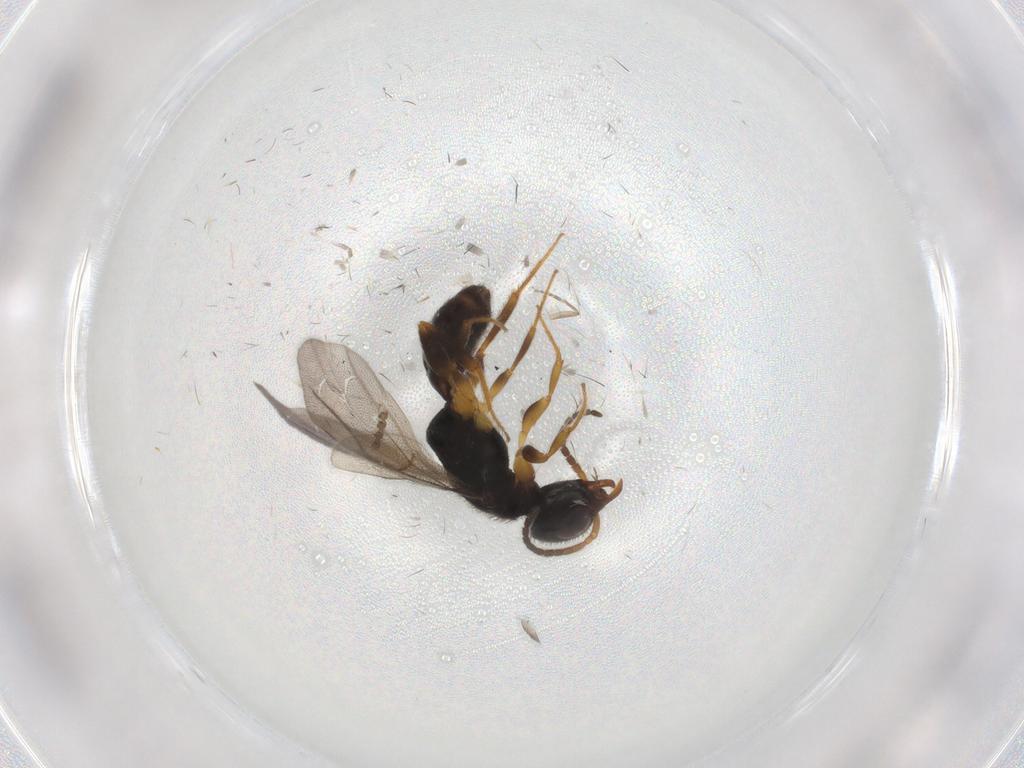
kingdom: Animalia
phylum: Arthropoda
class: Insecta
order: Hymenoptera
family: Bethylidae
